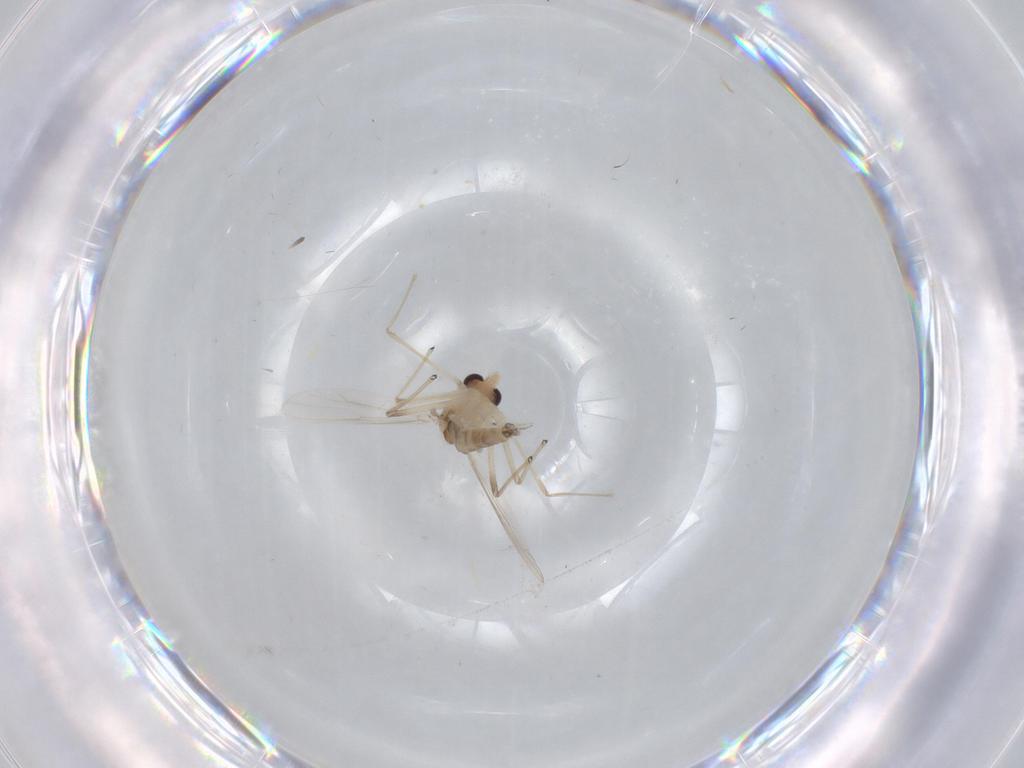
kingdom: Animalia
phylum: Arthropoda
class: Insecta
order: Diptera
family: Chironomidae
